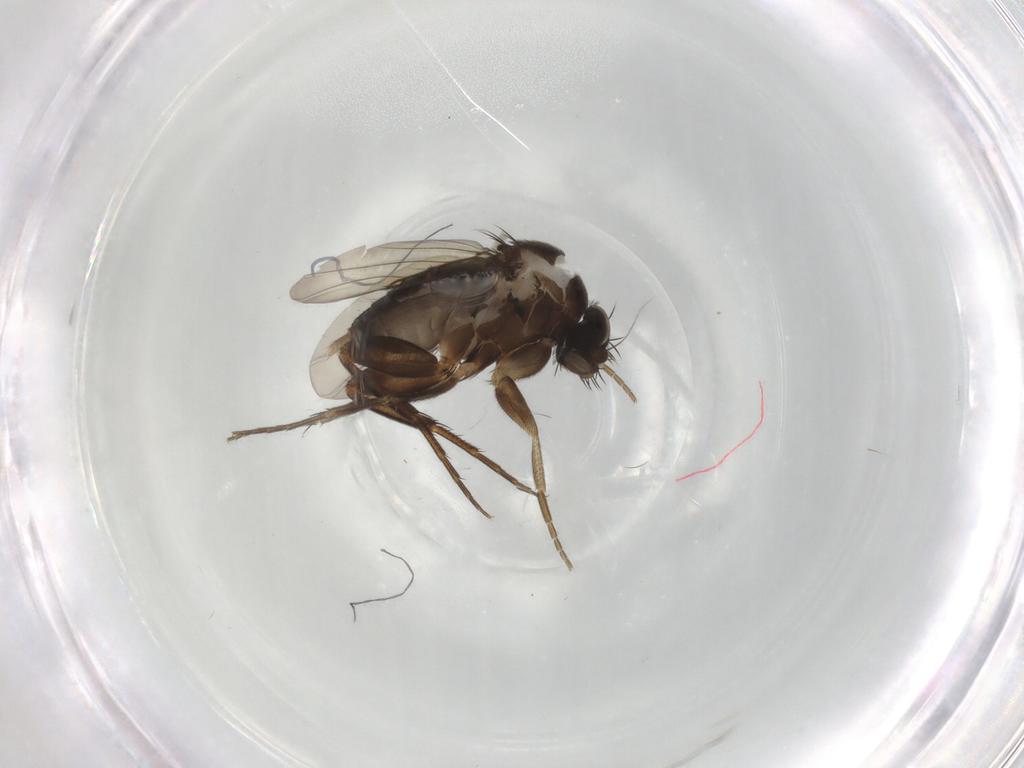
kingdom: Animalia
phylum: Arthropoda
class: Insecta
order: Diptera
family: Phoridae
